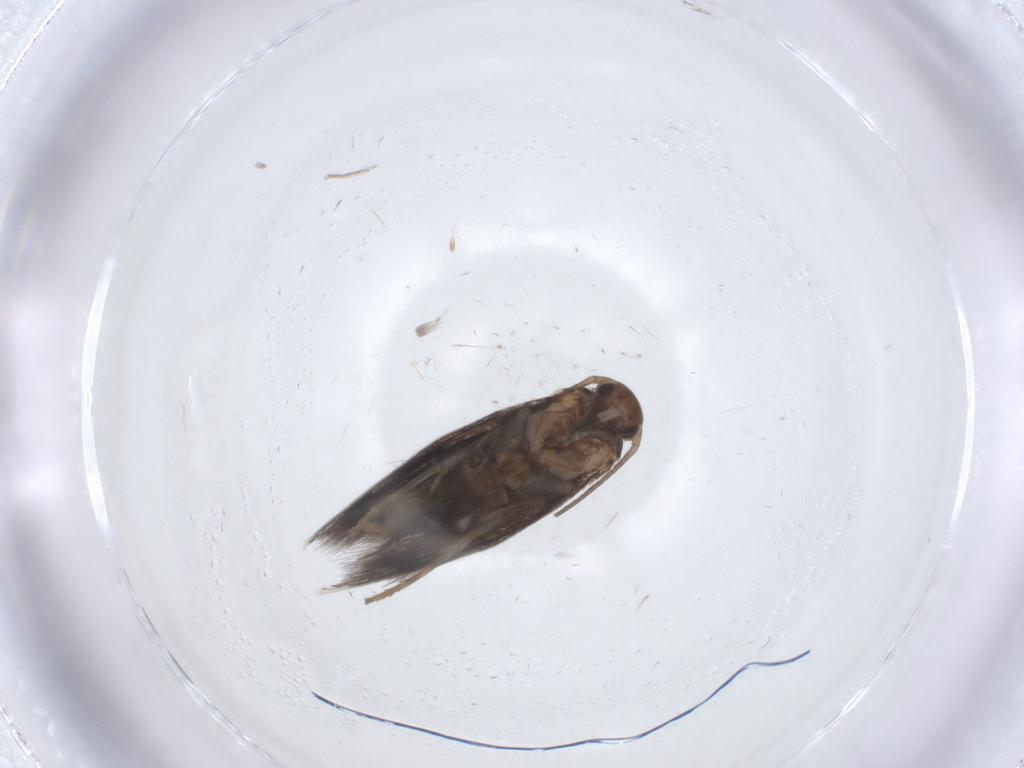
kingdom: Animalia
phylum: Arthropoda
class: Insecta
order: Lepidoptera
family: Elachistidae
